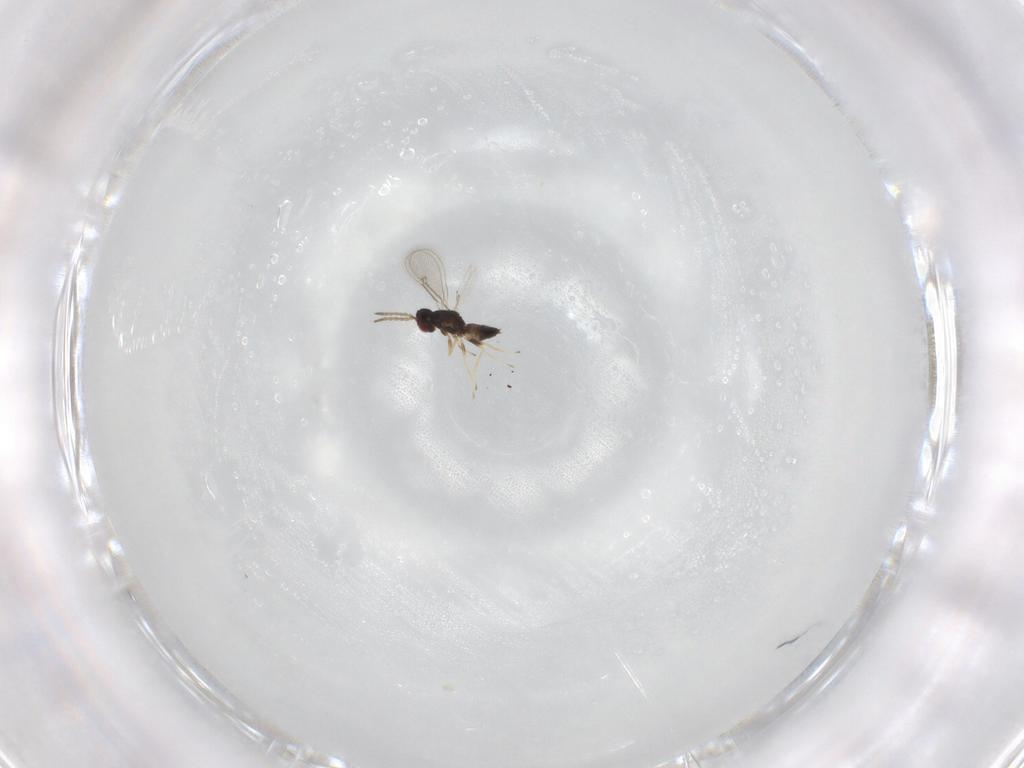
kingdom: Animalia
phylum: Arthropoda
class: Insecta
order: Hymenoptera
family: Eulophidae
